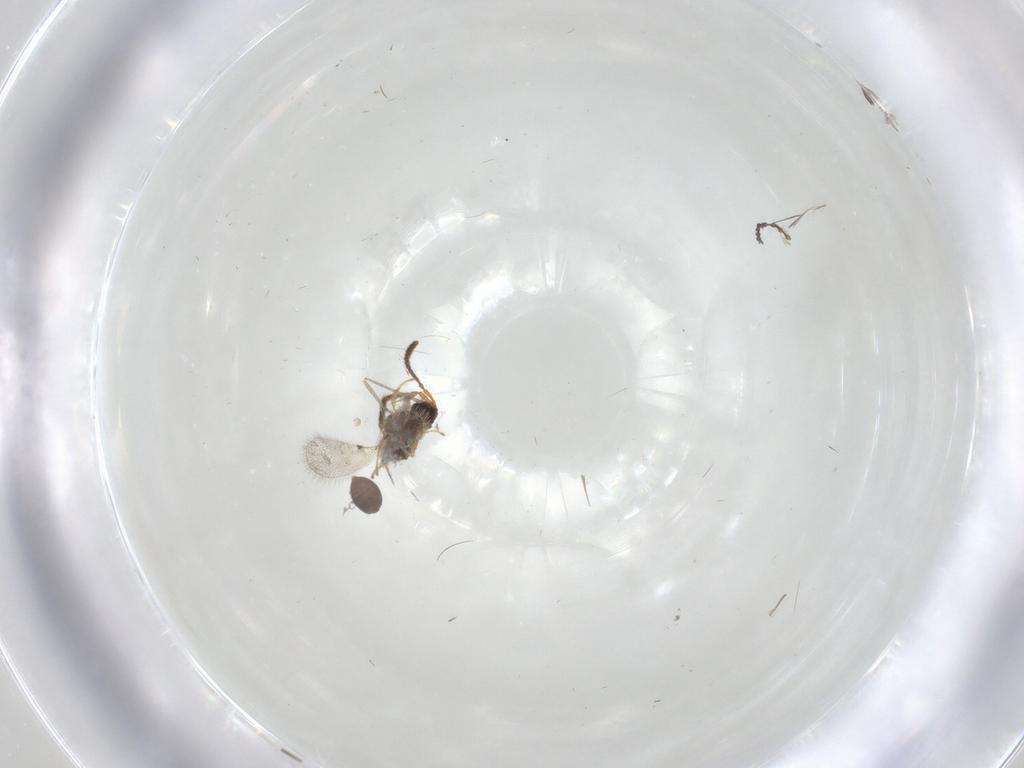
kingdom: Animalia
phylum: Arthropoda
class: Insecta
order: Hymenoptera
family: Diapriidae
